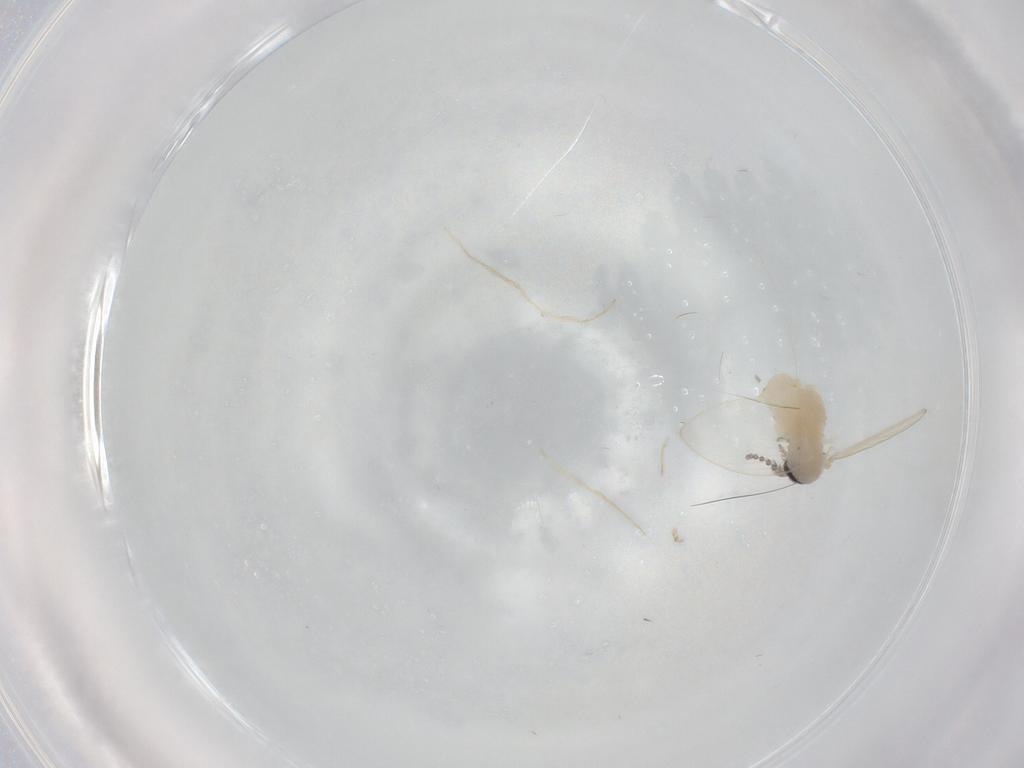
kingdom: Animalia
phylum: Arthropoda
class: Insecta
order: Diptera
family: Psychodidae
